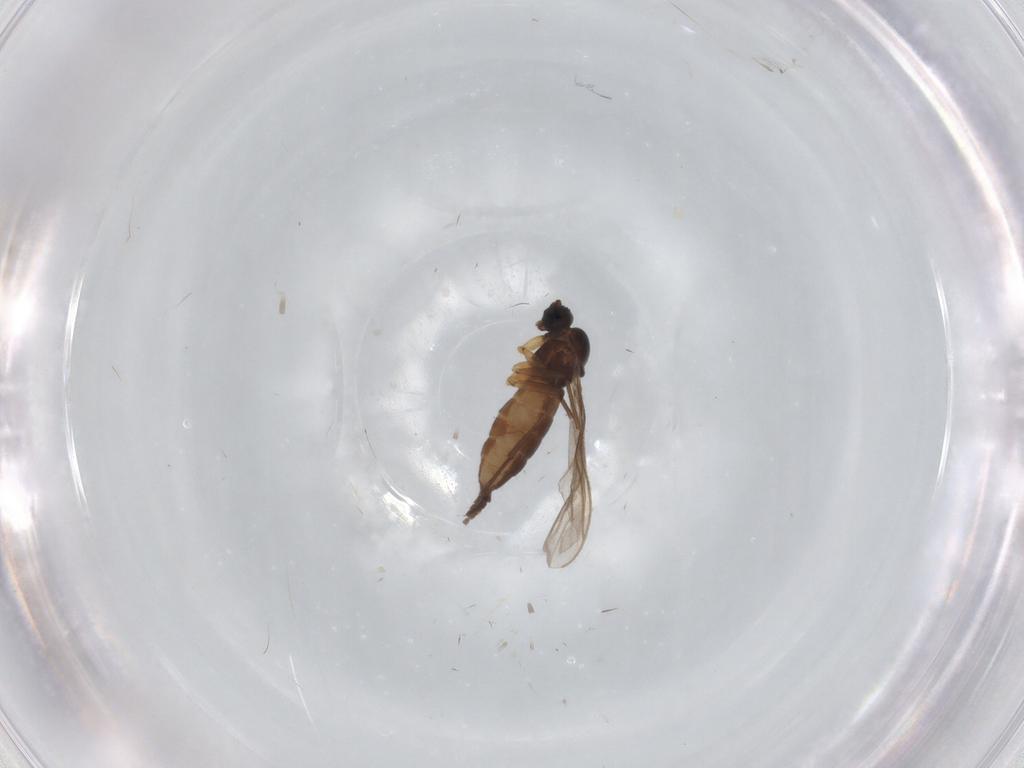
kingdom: Animalia
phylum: Arthropoda
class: Insecta
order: Diptera
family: Sciaridae
